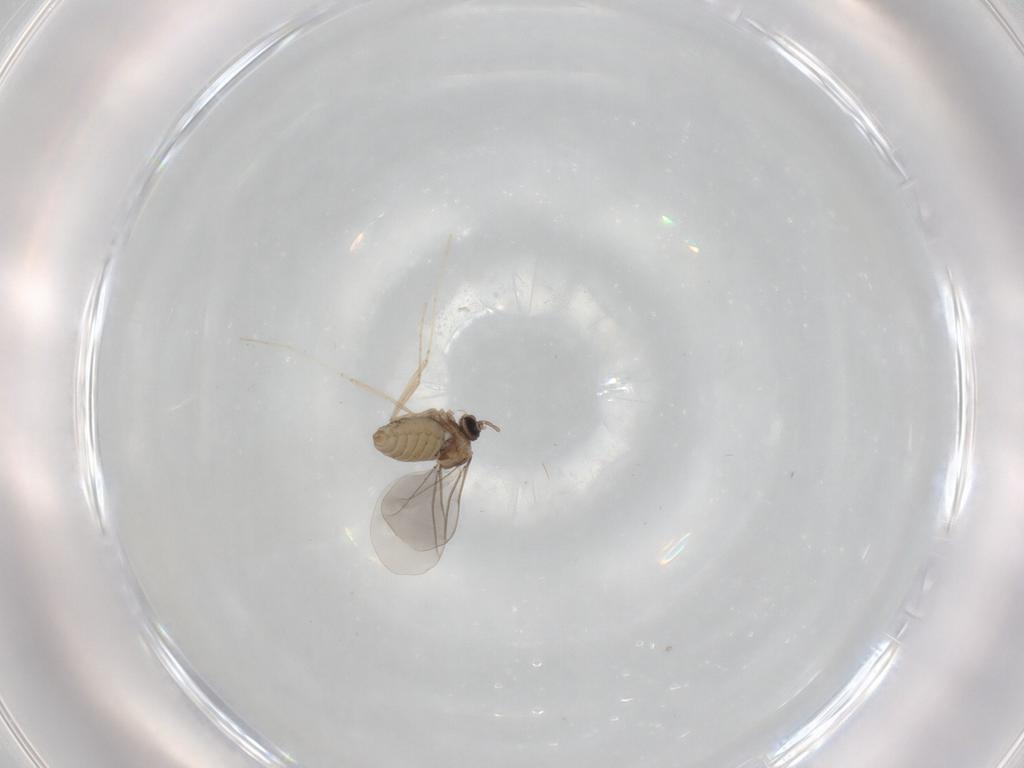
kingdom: Animalia
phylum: Arthropoda
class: Insecta
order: Diptera
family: Cecidomyiidae
